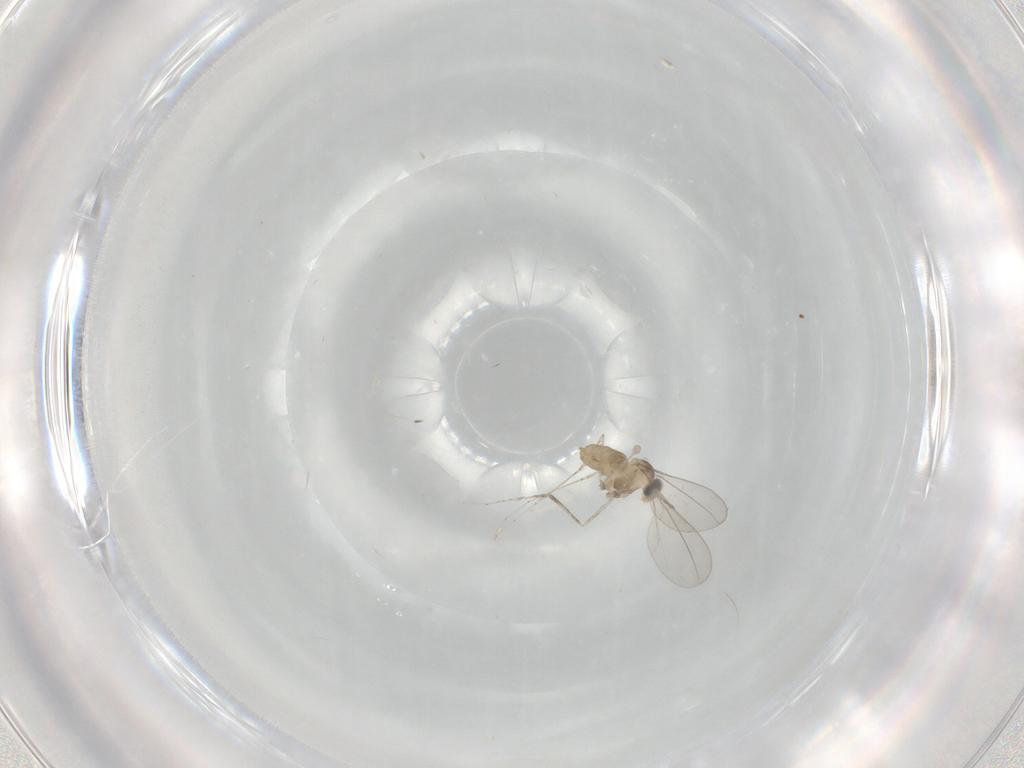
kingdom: Animalia
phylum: Arthropoda
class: Insecta
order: Diptera
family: Cecidomyiidae
